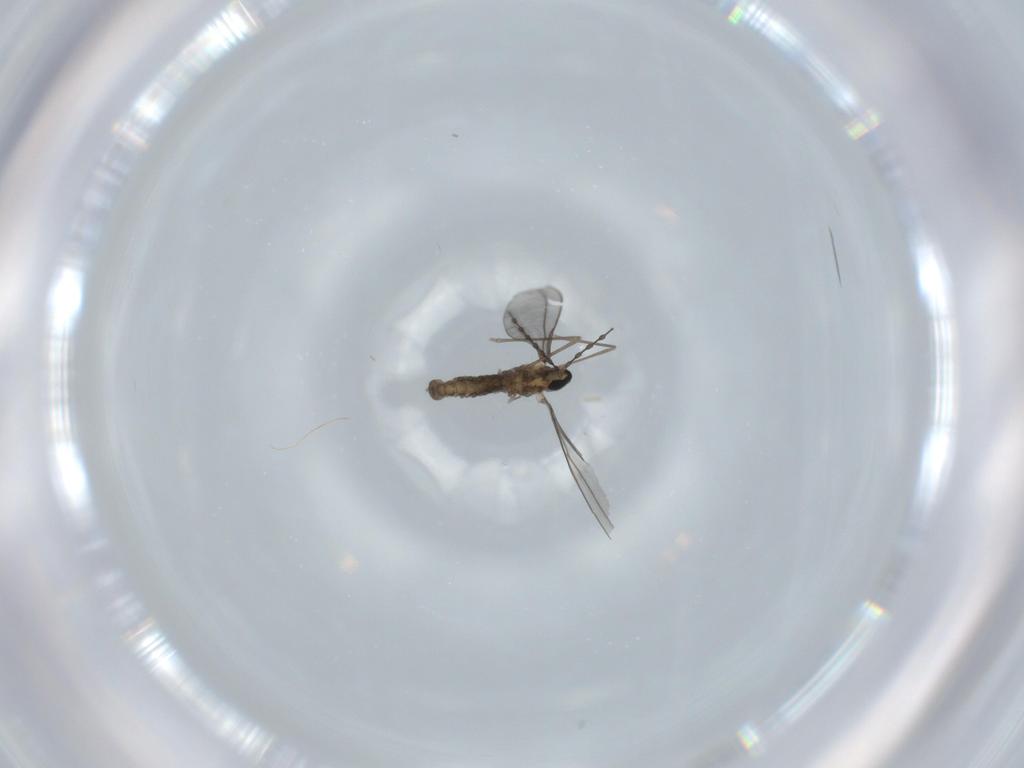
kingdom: Animalia
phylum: Arthropoda
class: Insecta
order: Diptera
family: Cecidomyiidae
